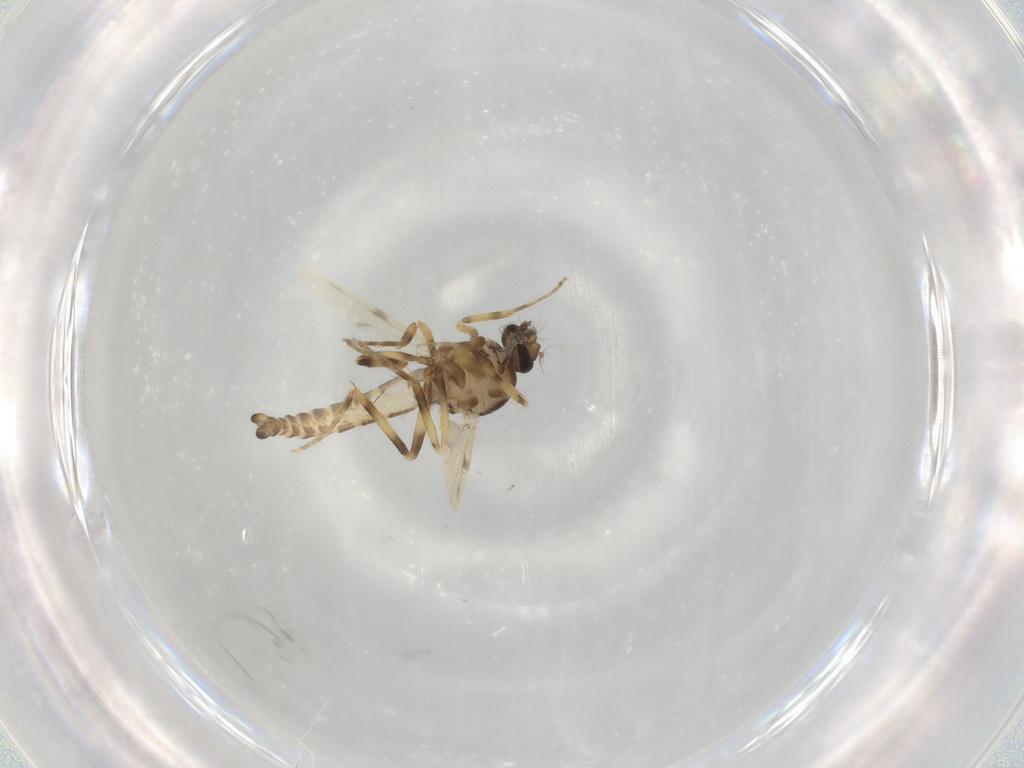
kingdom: Animalia
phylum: Arthropoda
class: Insecta
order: Diptera
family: Ceratopogonidae
